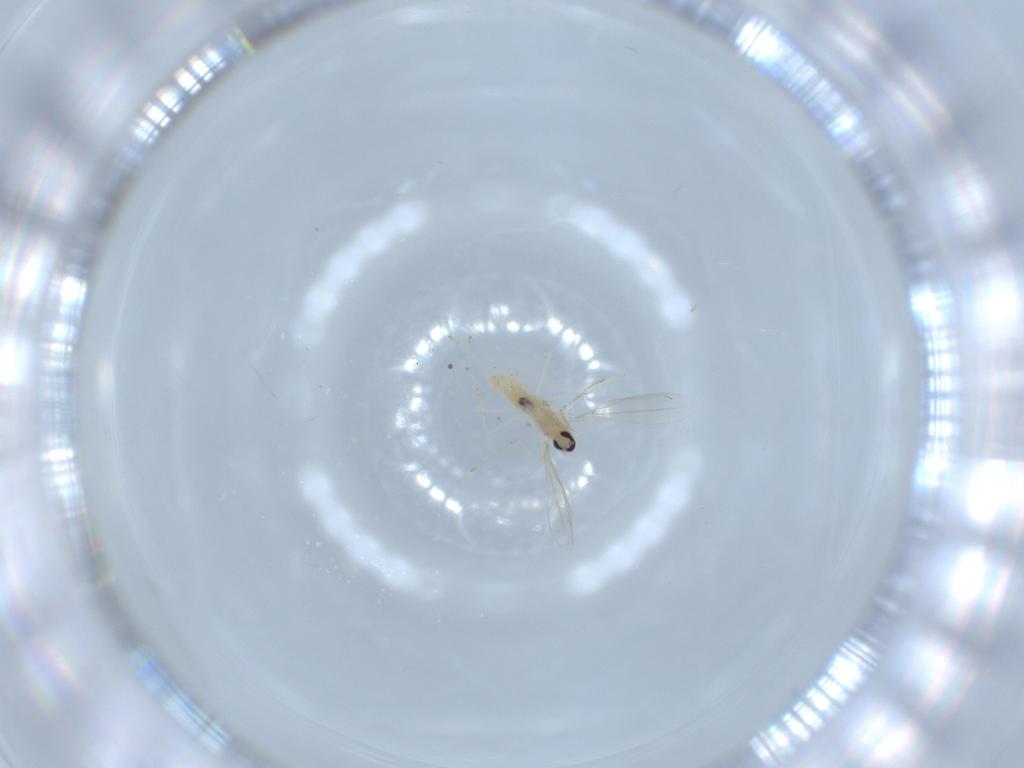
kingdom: Animalia
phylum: Arthropoda
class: Insecta
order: Diptera
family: Cecidomyiidae
